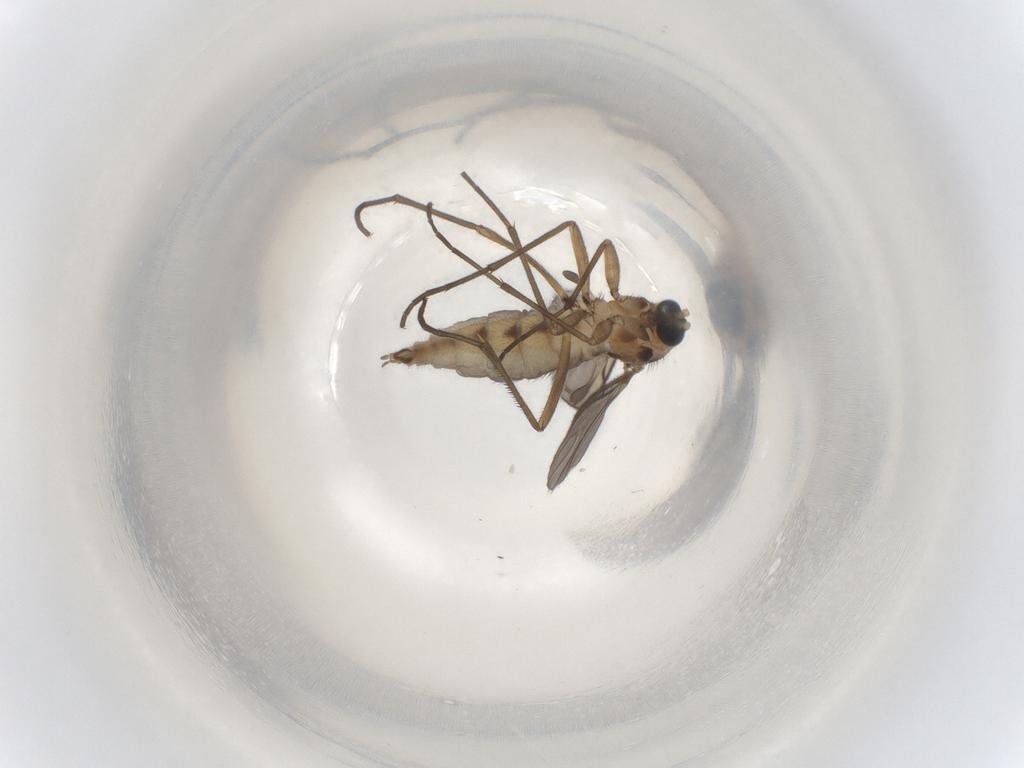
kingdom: Animalia
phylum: Arthropoda
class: Insecta
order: Diptera
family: Sciaridae
